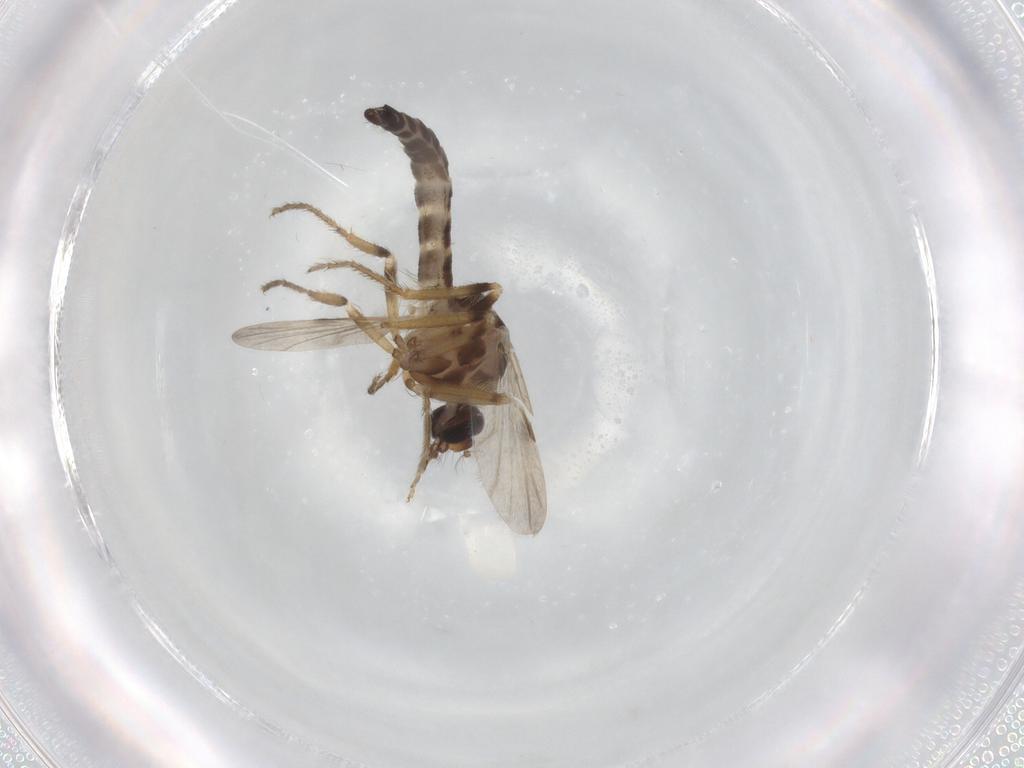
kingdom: Animalia
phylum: Arthropoda
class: Insecta
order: Diptera
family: Ceratopogonidae
